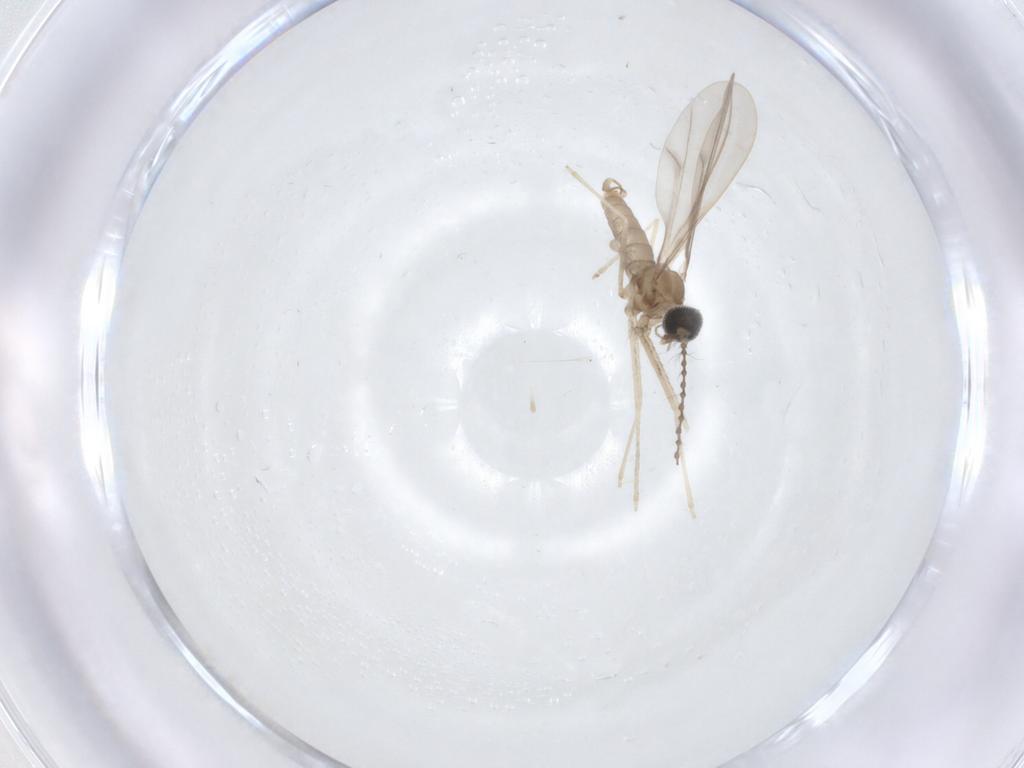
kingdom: Animalia
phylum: Arthropoda
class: Insecta
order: Diptera
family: Cecidomyiidae
